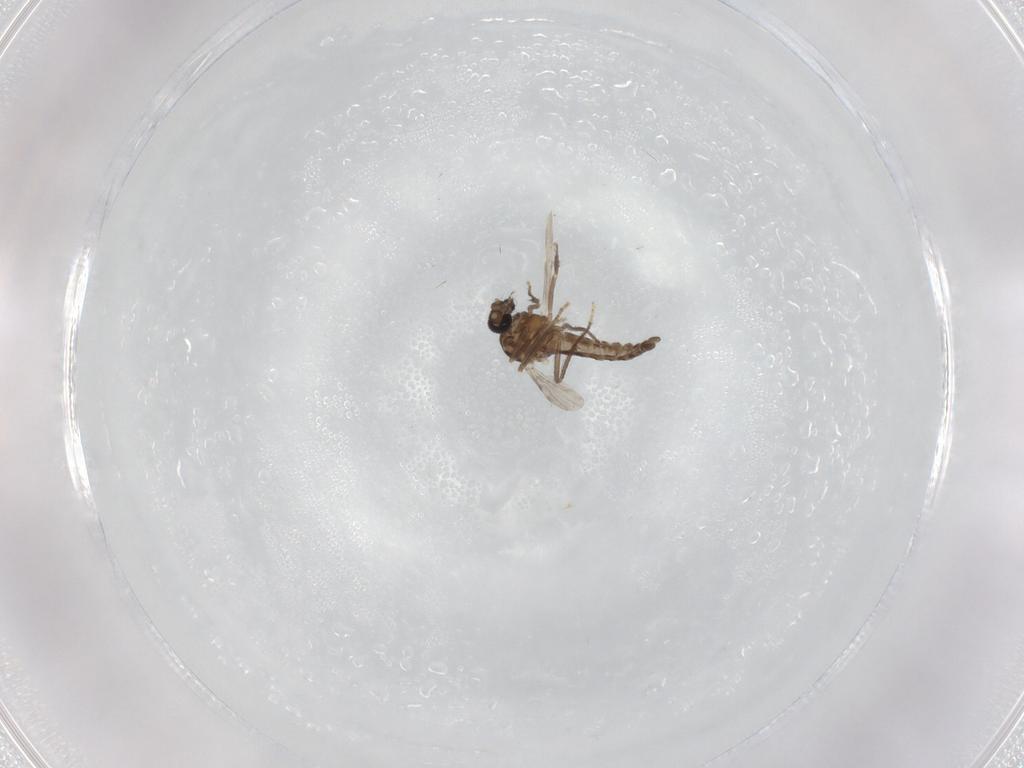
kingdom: Animalia
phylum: Arthropoda
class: Insecta
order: Diptera
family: Ceratopogonidae
